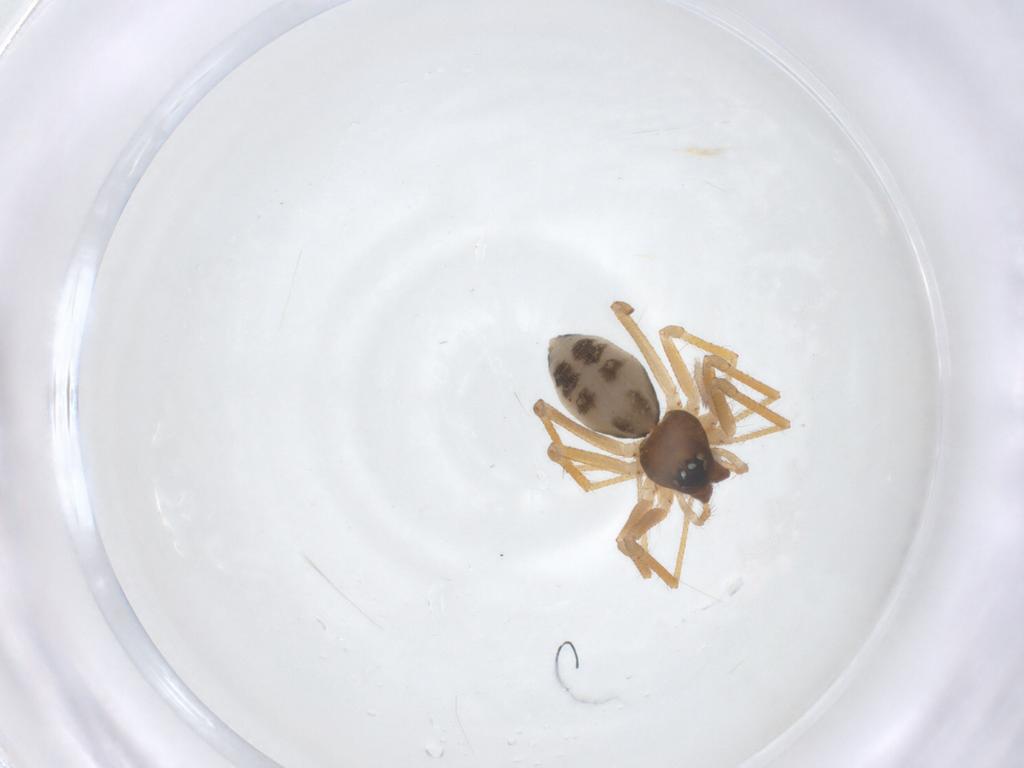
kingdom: Animalia
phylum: Arthropoda
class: Arachnida
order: Araneae
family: Linyphiidae
